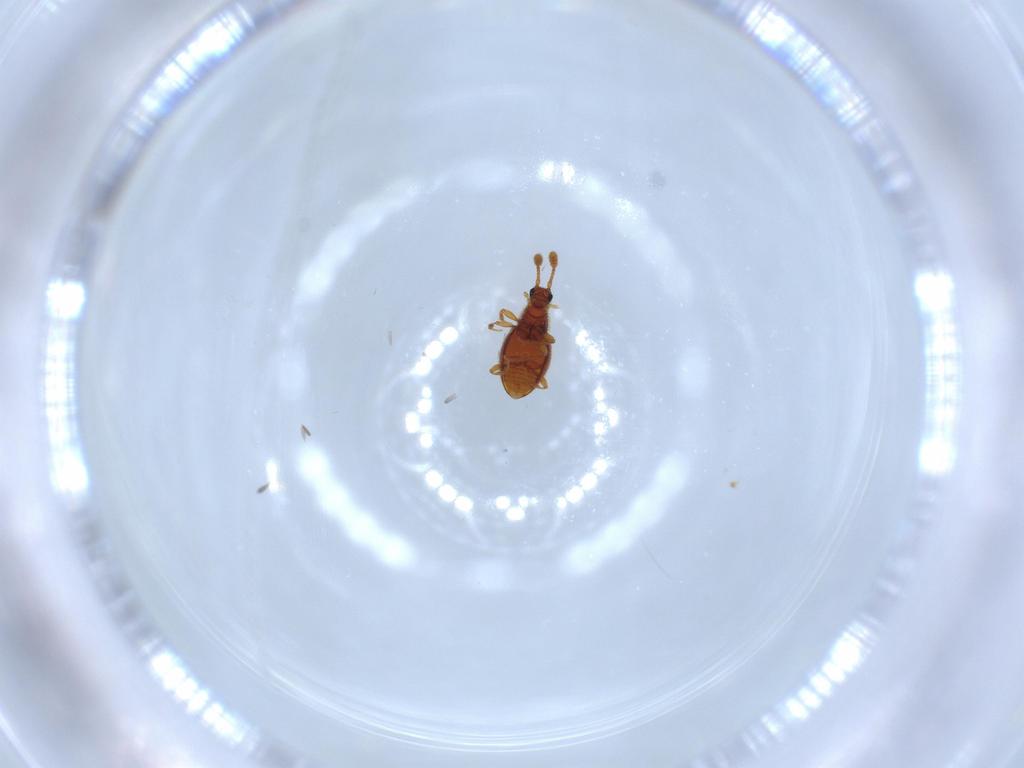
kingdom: Animalia
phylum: Arthropoda
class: Insecta
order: Coleoptera
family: Staphylinidae
